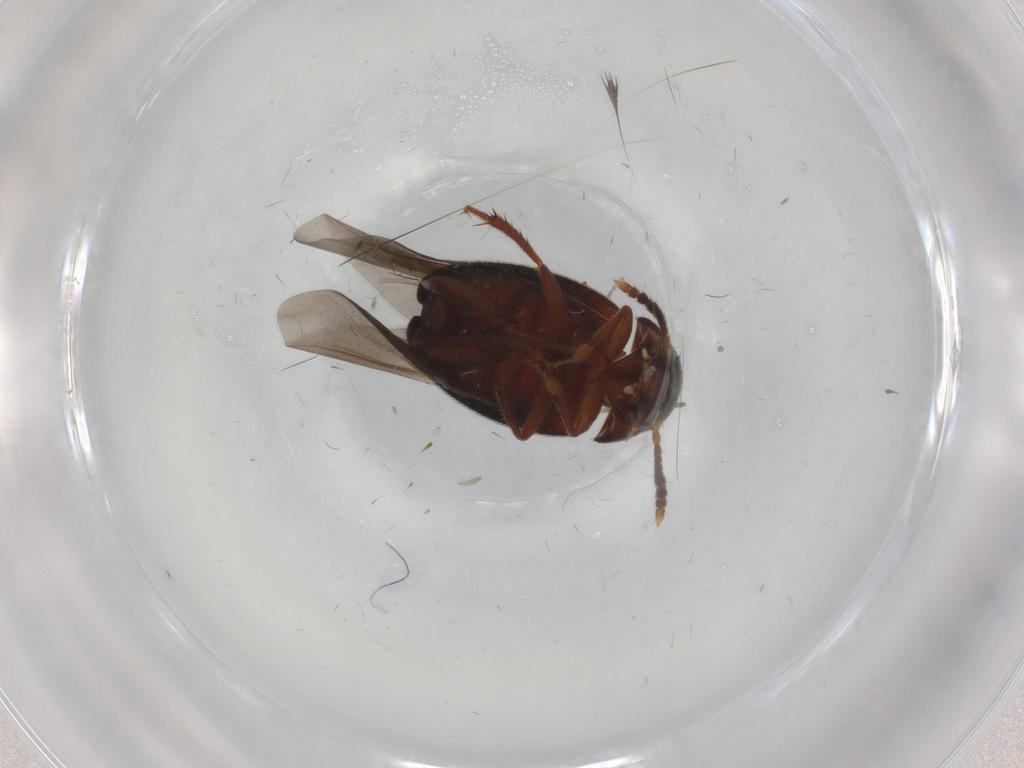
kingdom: Animalia
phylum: Arthropoda
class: Insecta
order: Coleoptera
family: Leiodidae
